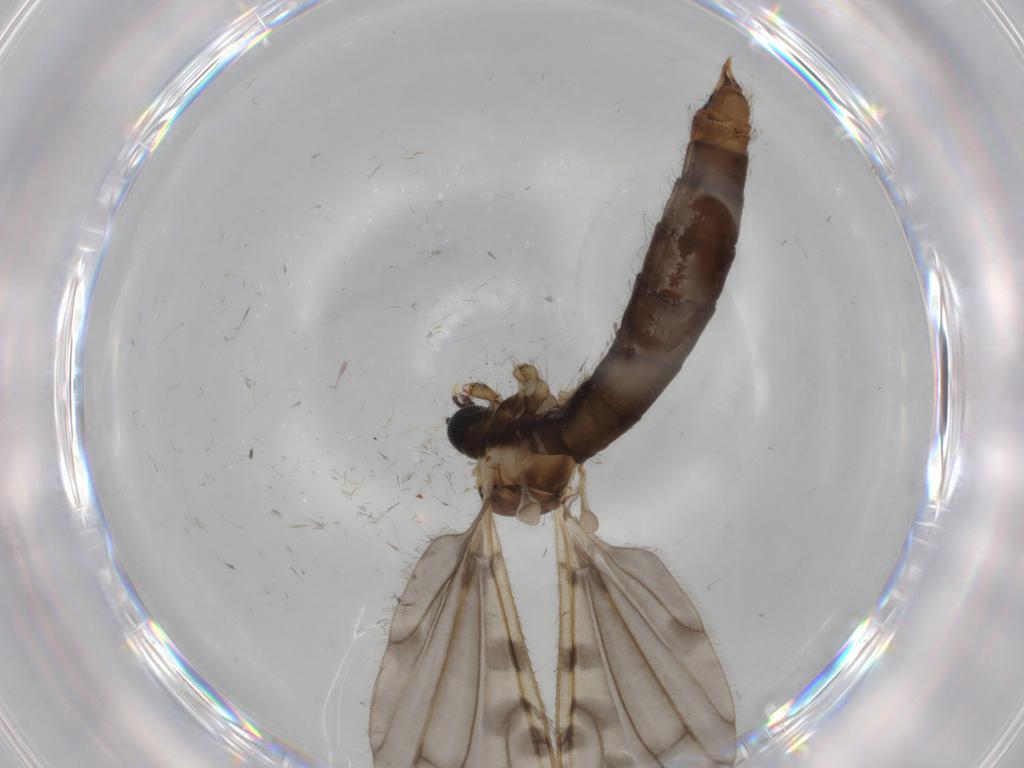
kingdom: Animalia
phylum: Arthropoda
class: Insecta
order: Diptera
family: Limoniidae
